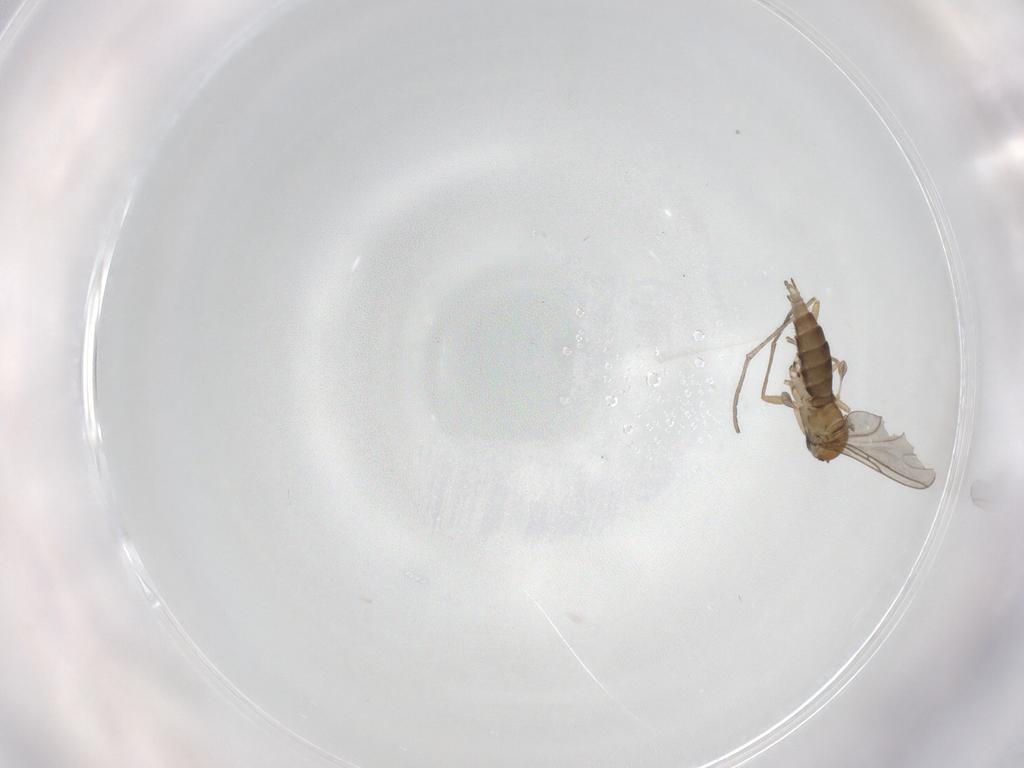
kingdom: Animalia
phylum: Arthropoda
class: Insecta
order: Diptera
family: Sciaridae
